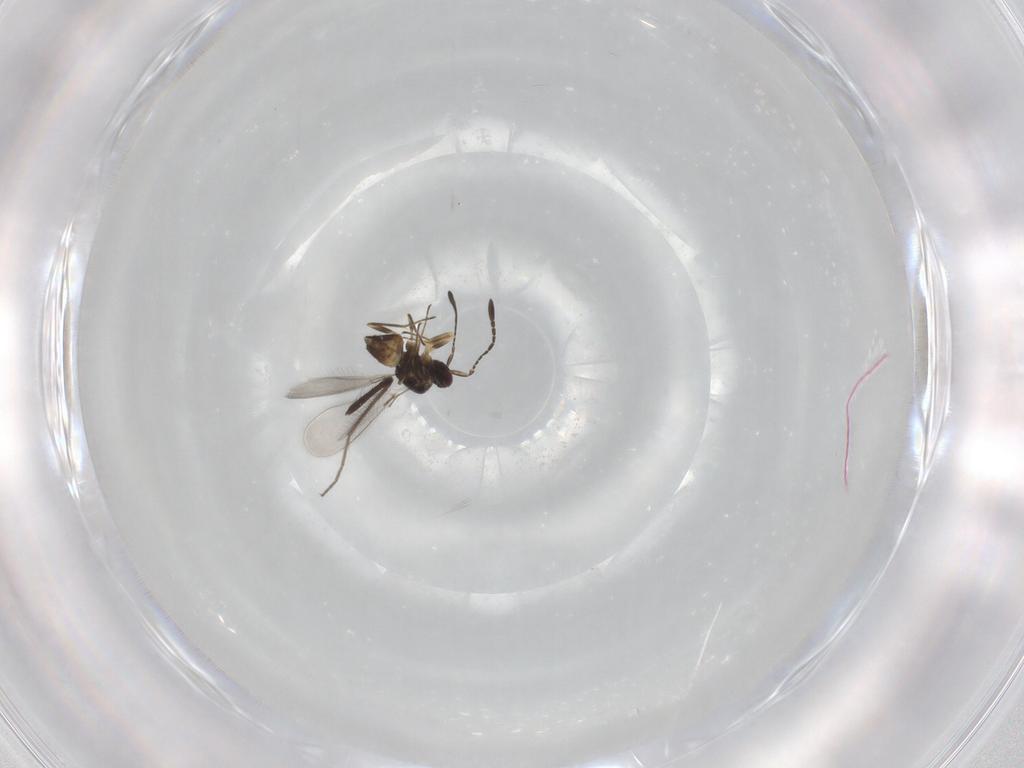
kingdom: Animalia
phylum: Arthropoda
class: Insecta
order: Hymenoptera
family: Mymaridae
